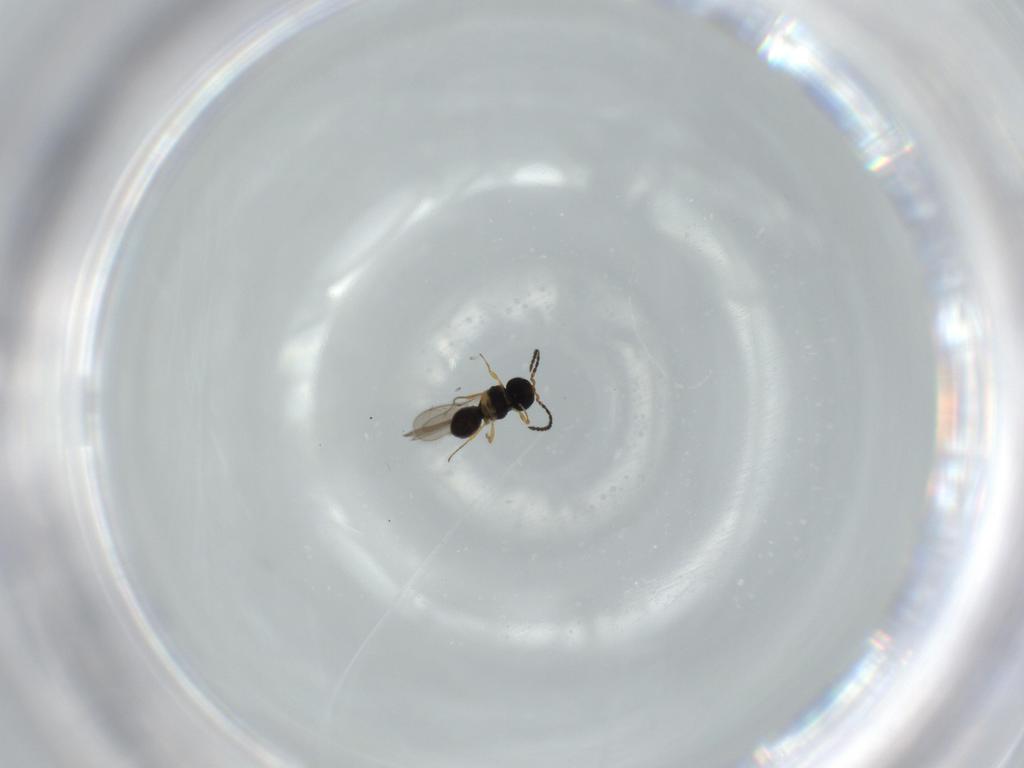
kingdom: Animalia
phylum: Arthropoda
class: Insecta
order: Hymenoptera
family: Scelionidae
